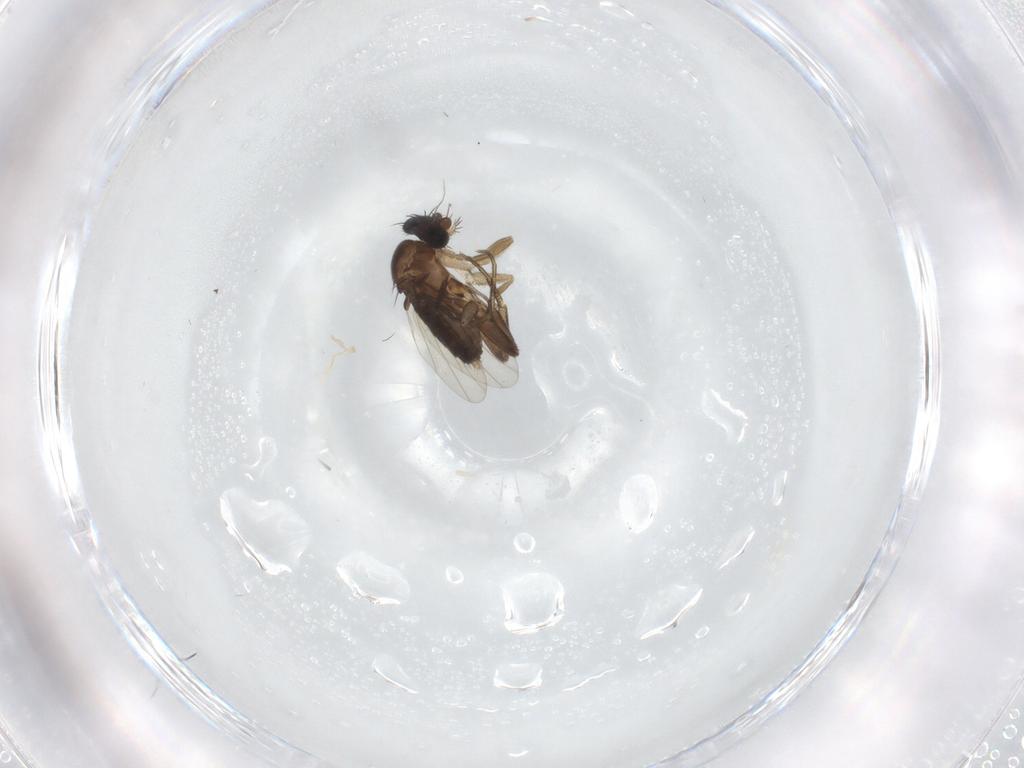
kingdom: Animalia
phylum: Arthropoda
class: Insecta
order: Diptera
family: Phoridae
